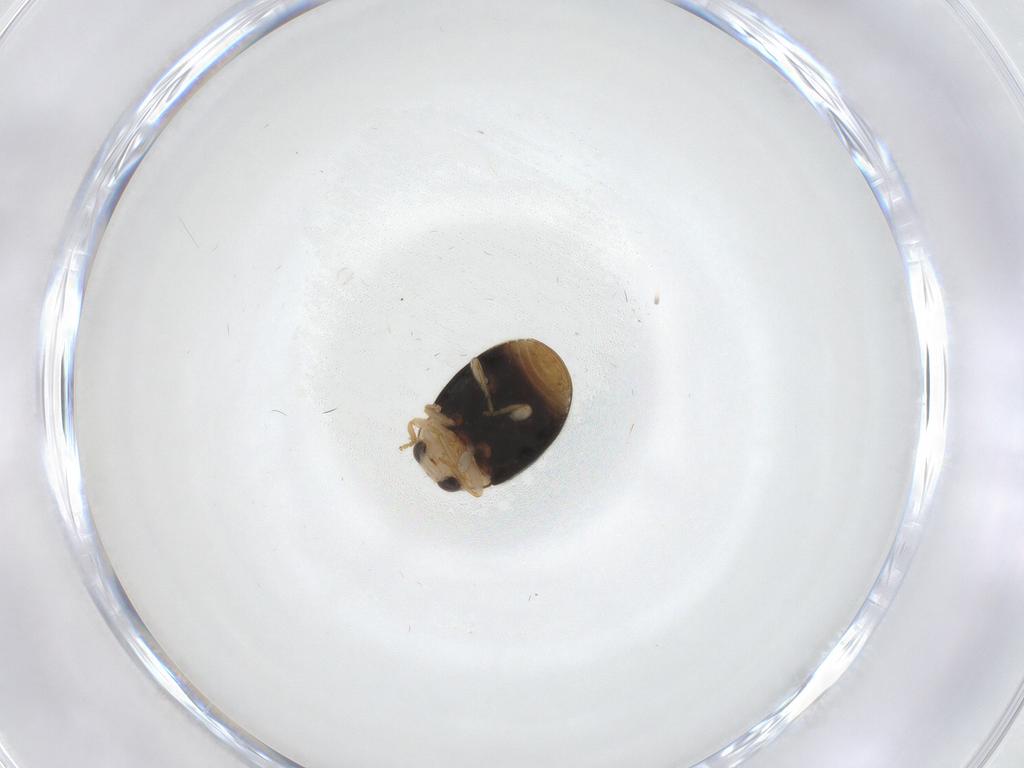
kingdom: Animalia
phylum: Arthropoda
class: Insecta
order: Coleoptera
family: Coccinellidae
